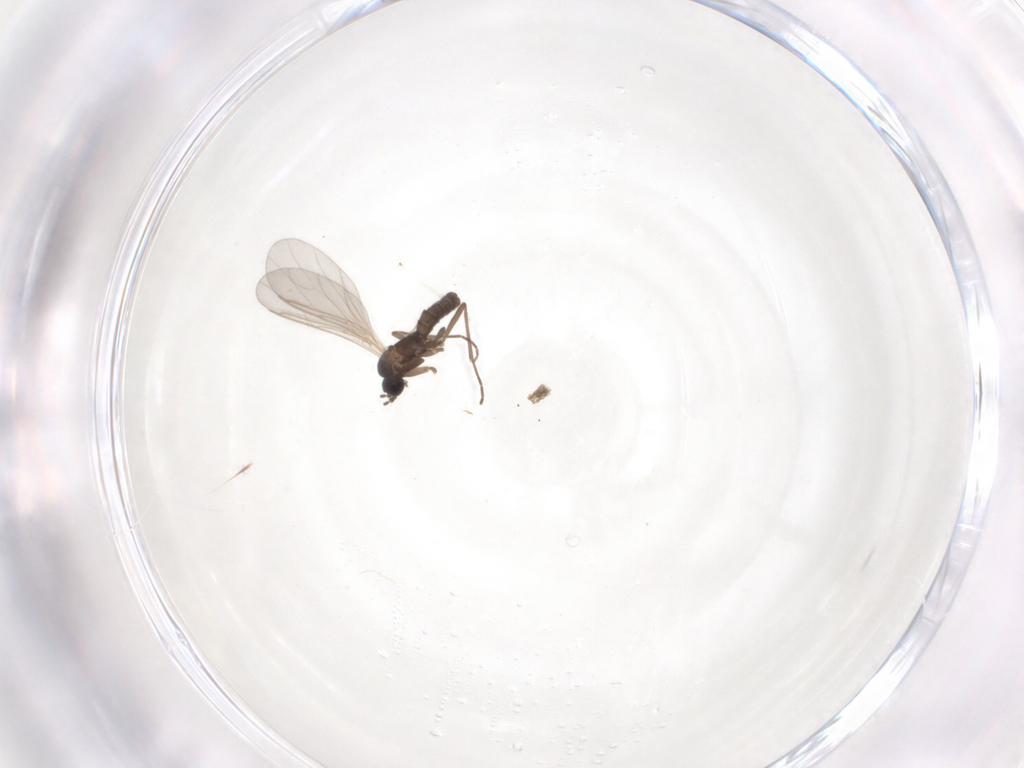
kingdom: Animalia
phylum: Arthropoda
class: Insecta
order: Diptera
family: Sciaridae
